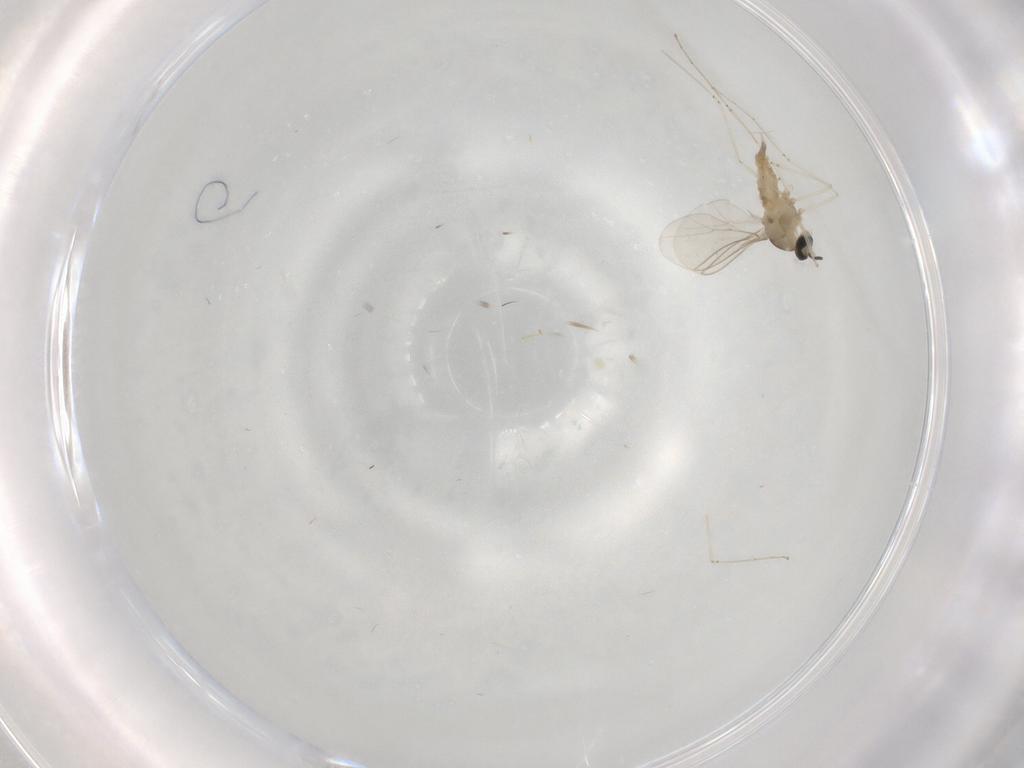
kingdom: Animalia
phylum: Arthropoda
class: Insecta
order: Diptera
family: Cecidomyiidae
